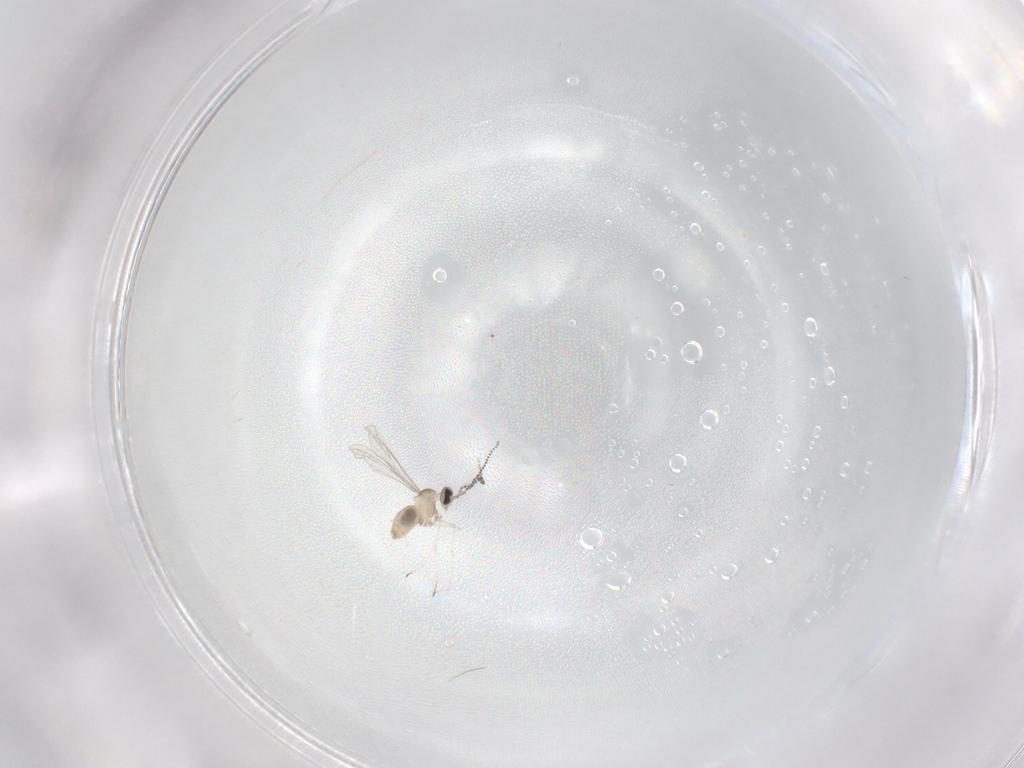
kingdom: Animalia
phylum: Arthropoda
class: Insecta
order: Diptera
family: Cecidomyiidae
